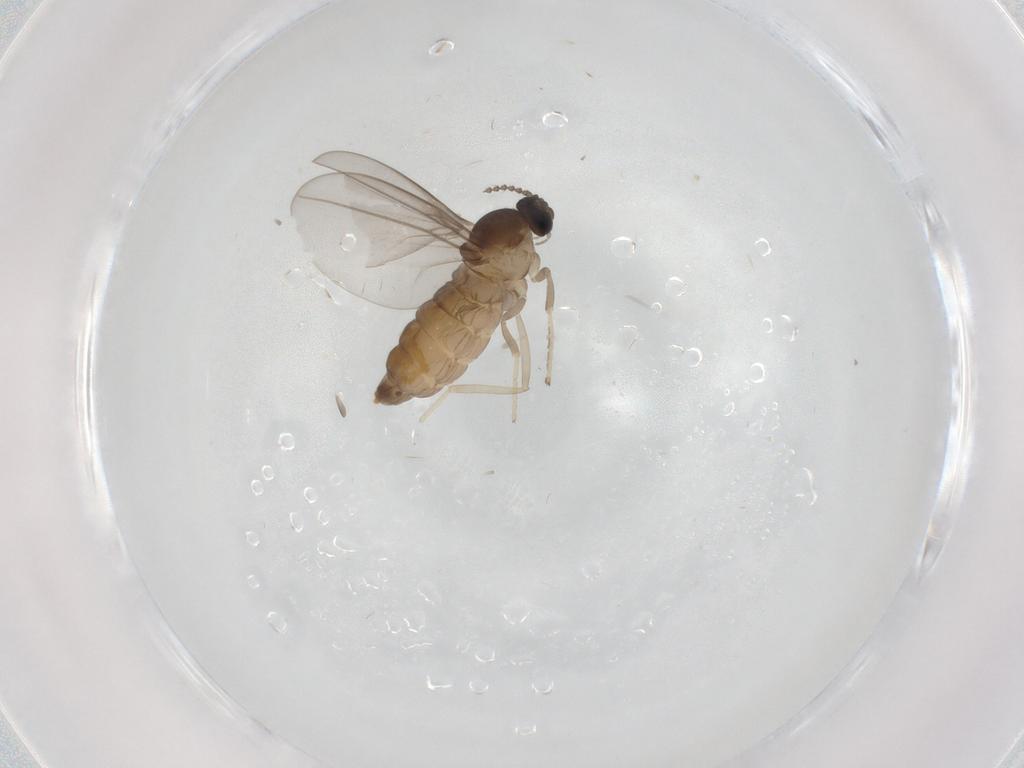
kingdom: Animalia
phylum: Arthropoda
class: Insecta
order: Diptera
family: Cecidomyiidae
